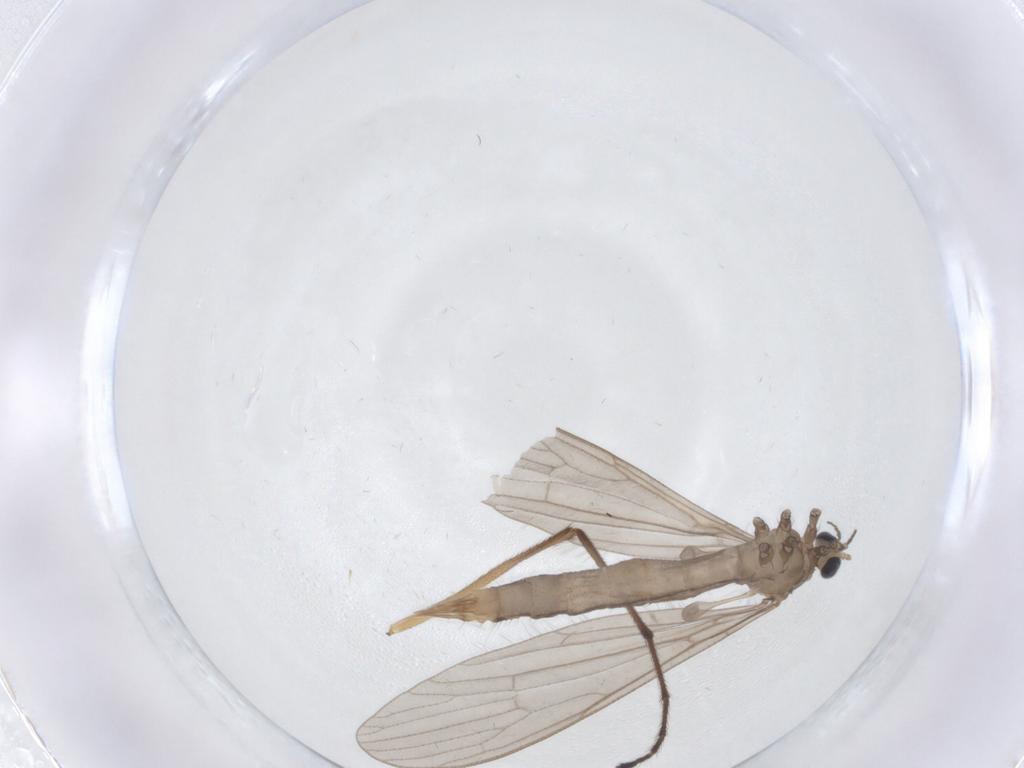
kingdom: Animalia
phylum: Arthropoda
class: Insecta
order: Diptera
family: Limoniidae
